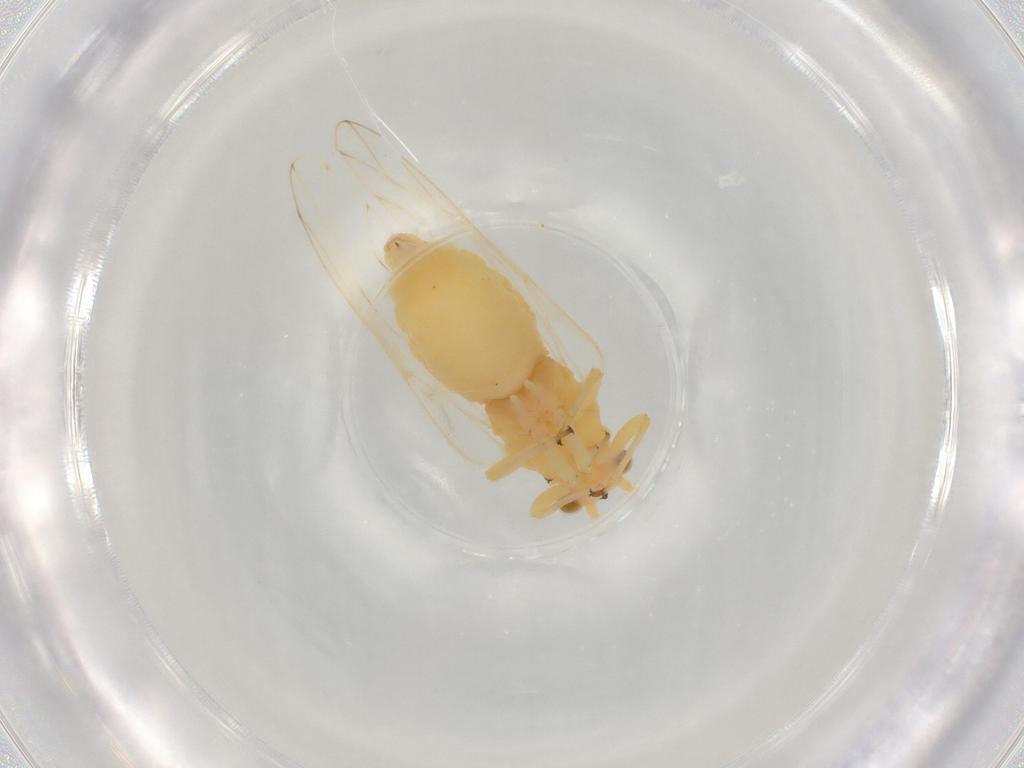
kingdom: Animalia
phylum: Arthropoda
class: Insecta
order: Hemiptera
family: Aphalaridae
